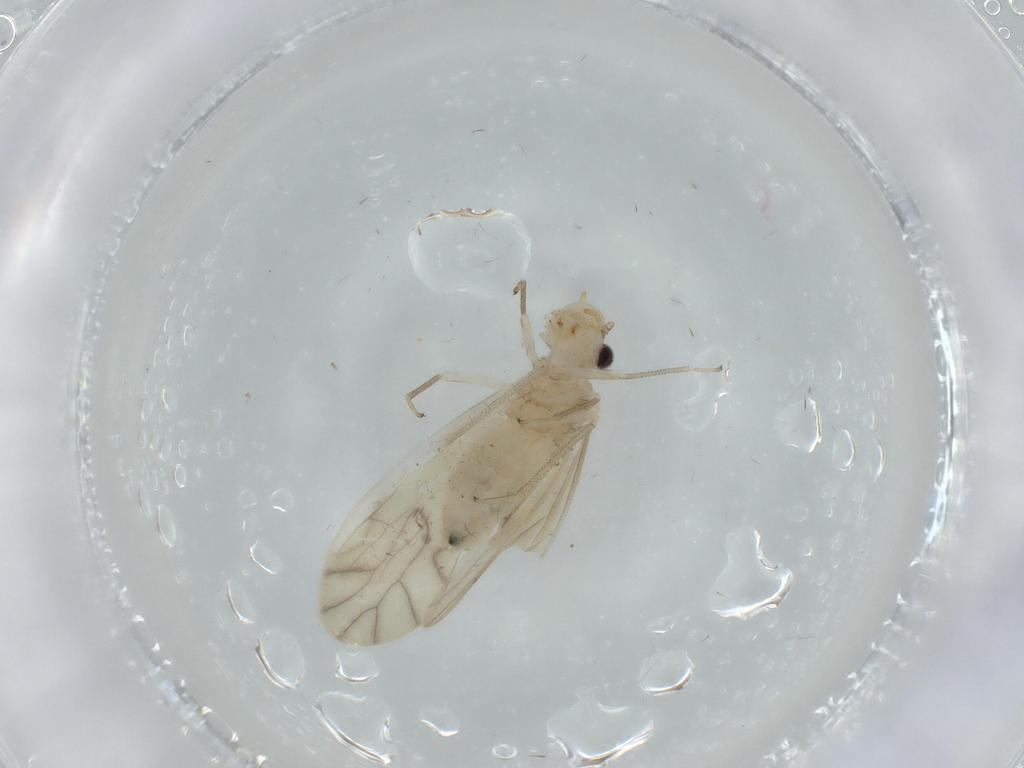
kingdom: Animalia
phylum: Arthropoda
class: Insecta
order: Psocodea
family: Caeciliusidae
